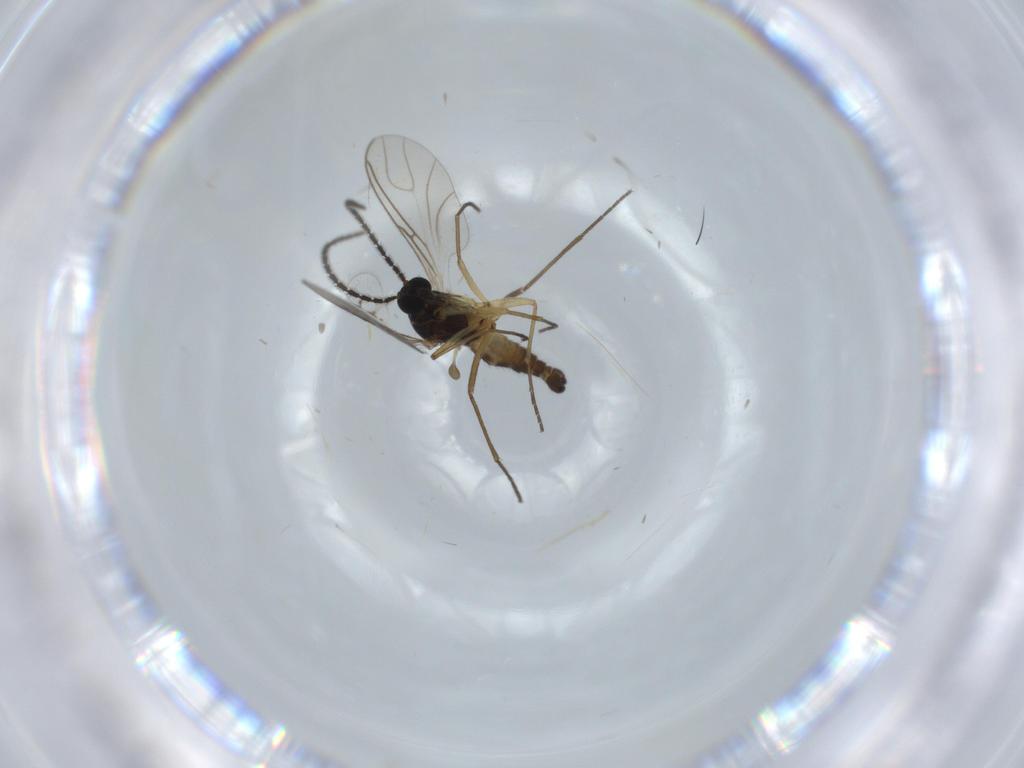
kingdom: Animalia
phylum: Arthropoda
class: Insecta
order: Diptera
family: Sciaridae
